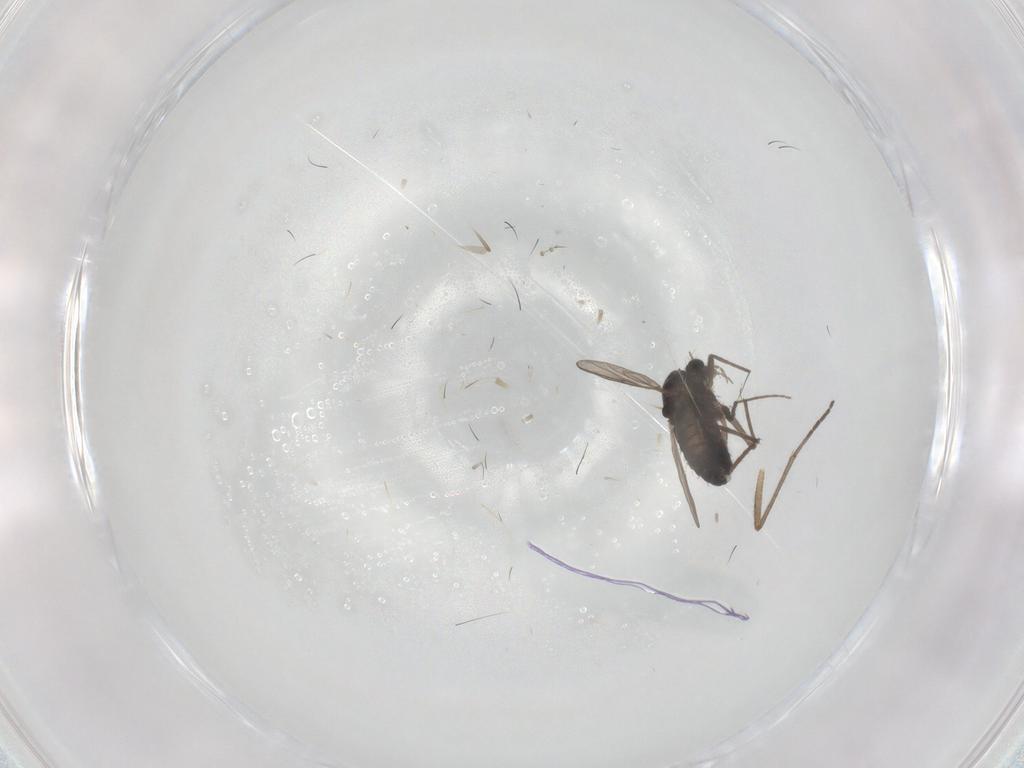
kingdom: Animalia
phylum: Arthropoda
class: Insecta
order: Diptera
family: Chironomidae
